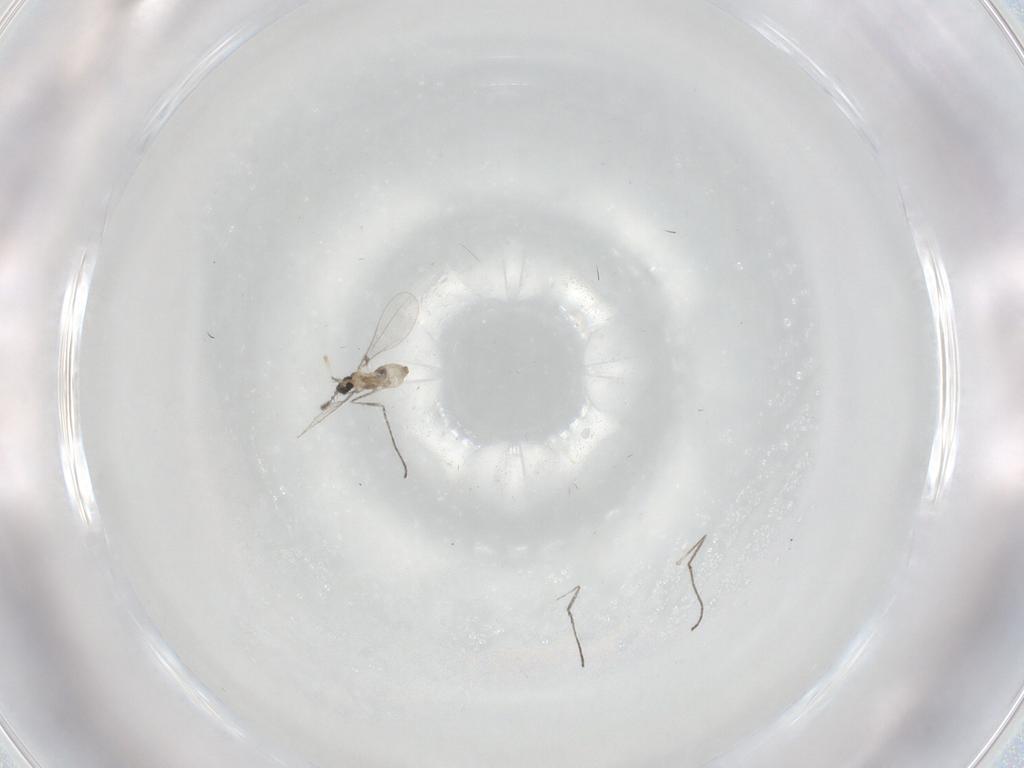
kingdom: Animalia
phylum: Arthropoda
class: Insecta
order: Diptera
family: Cecidomyiidae
